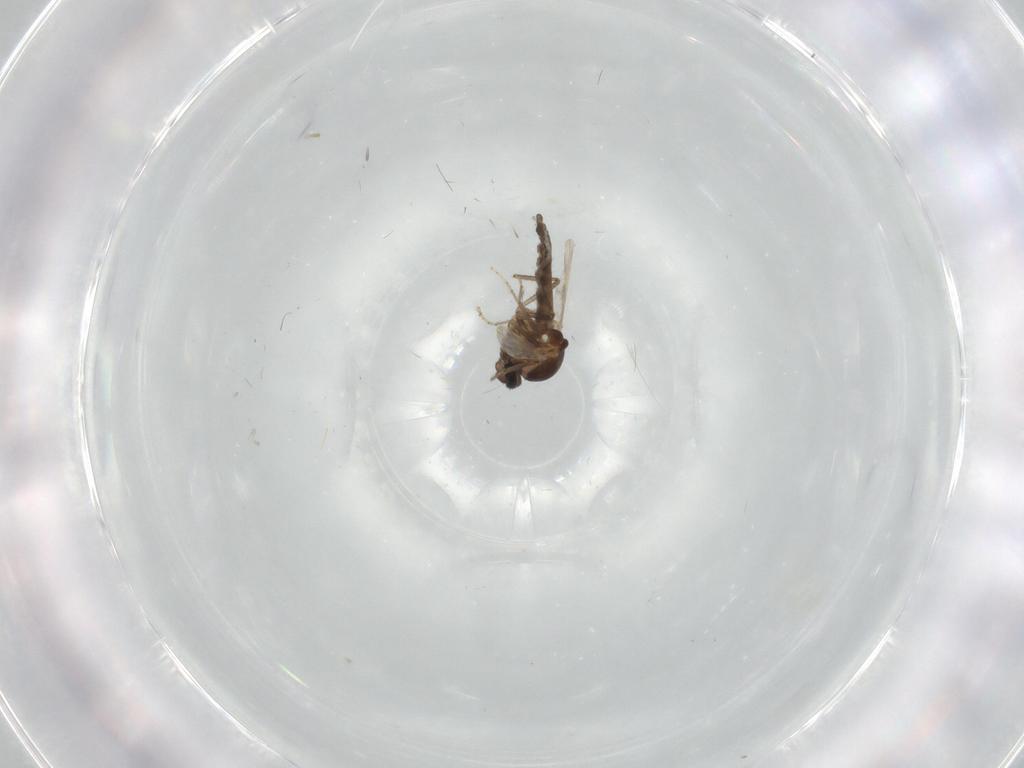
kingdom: Animalia
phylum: Arthropoda
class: Insecta
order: Diptera
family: Ceratopogonidae
